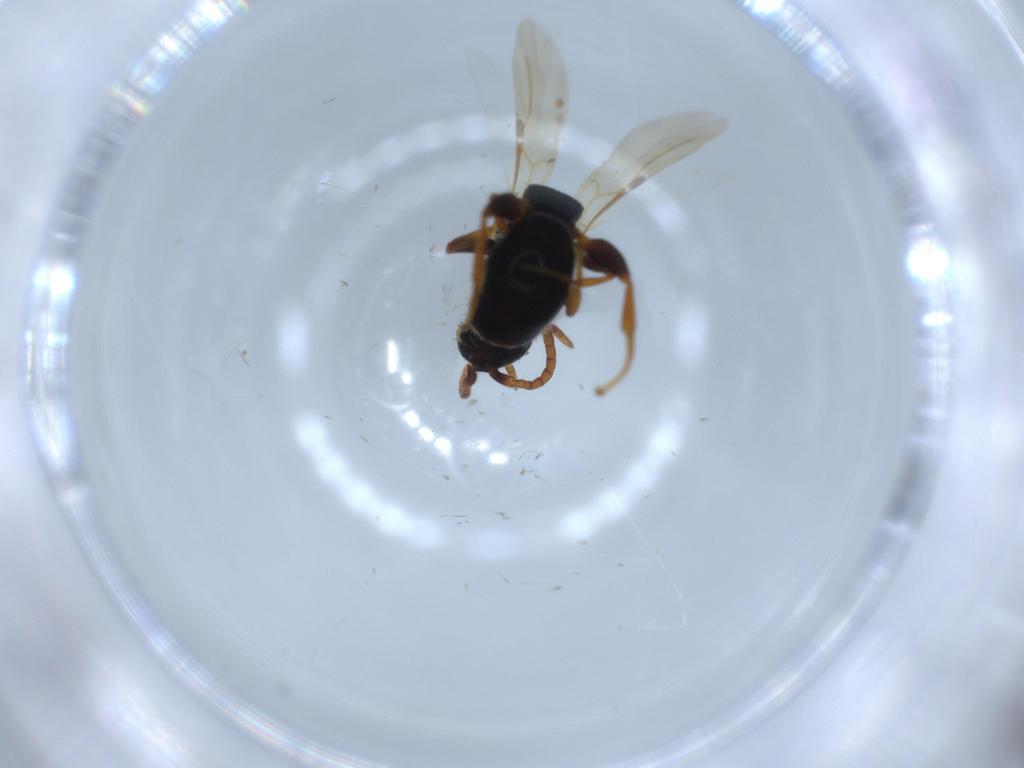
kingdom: Animalia
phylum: Arthropoda
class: Insecta
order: Hymenoptera
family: Bethylidae
